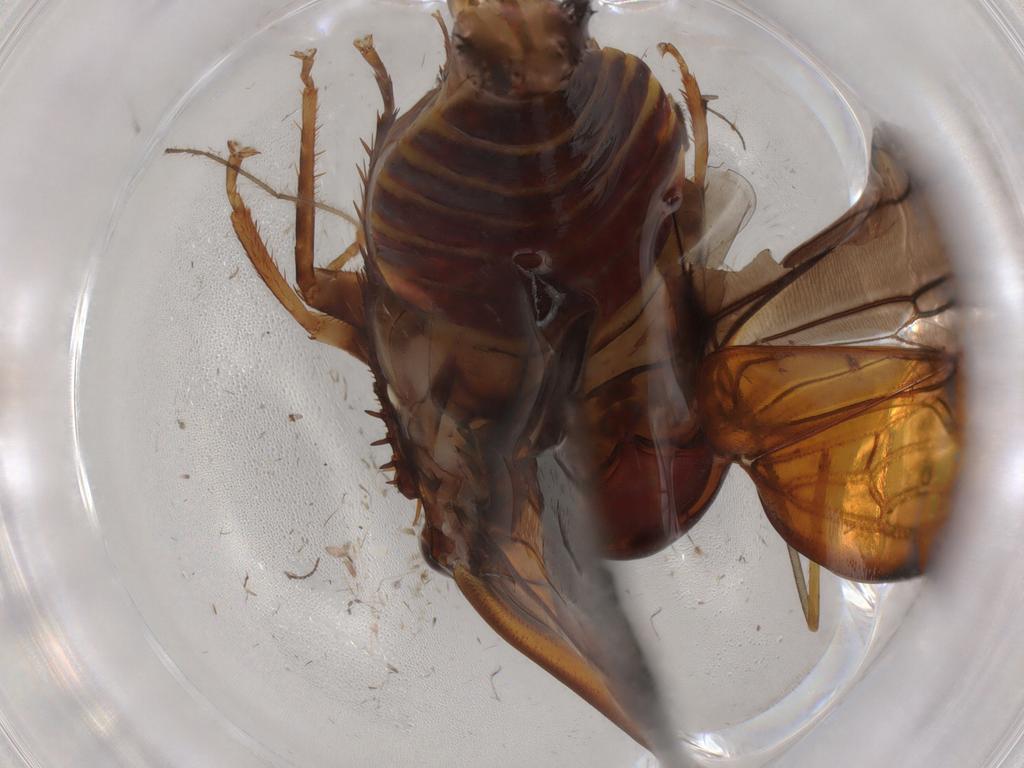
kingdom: Animalia
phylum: Arthropoda
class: Insecta
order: Hemiptera
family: Cicadellidae
